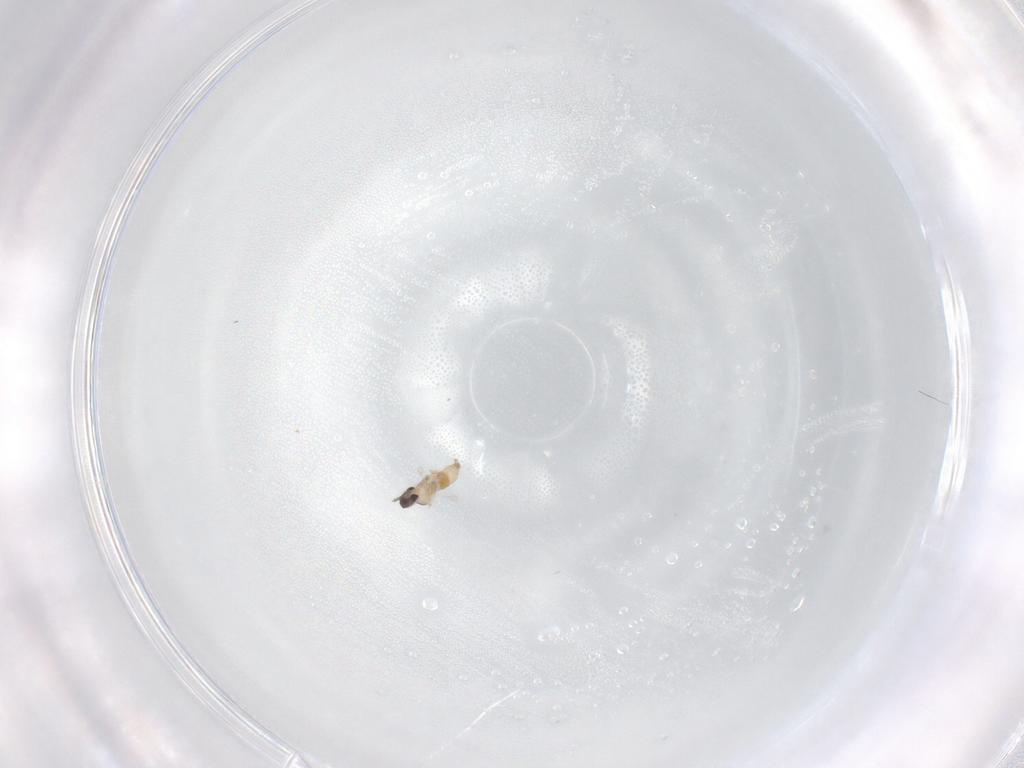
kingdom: Animalia
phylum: Arthropoda
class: Insecta
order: Diptera
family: Cecidomyiidae
